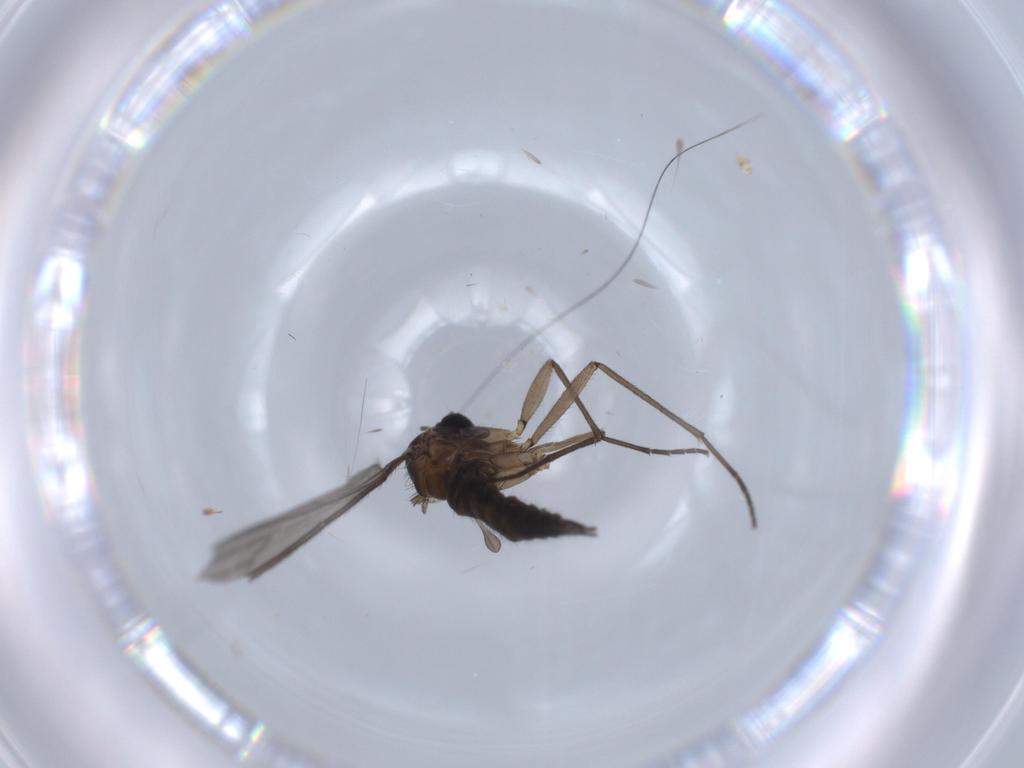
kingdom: Animalia
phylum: Arthropoda
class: Insecta
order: Diptera
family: Sciaridae
